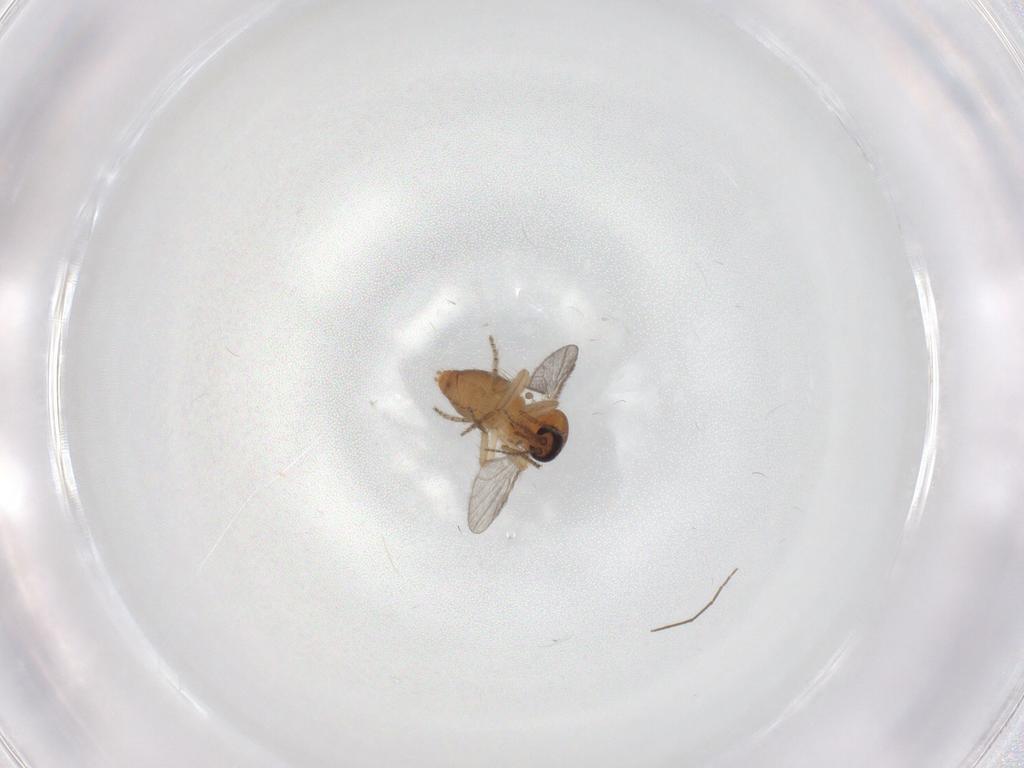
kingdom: Animalia
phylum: Arthropoda
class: Insecta
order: Diptera
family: Ceratopogonidae
